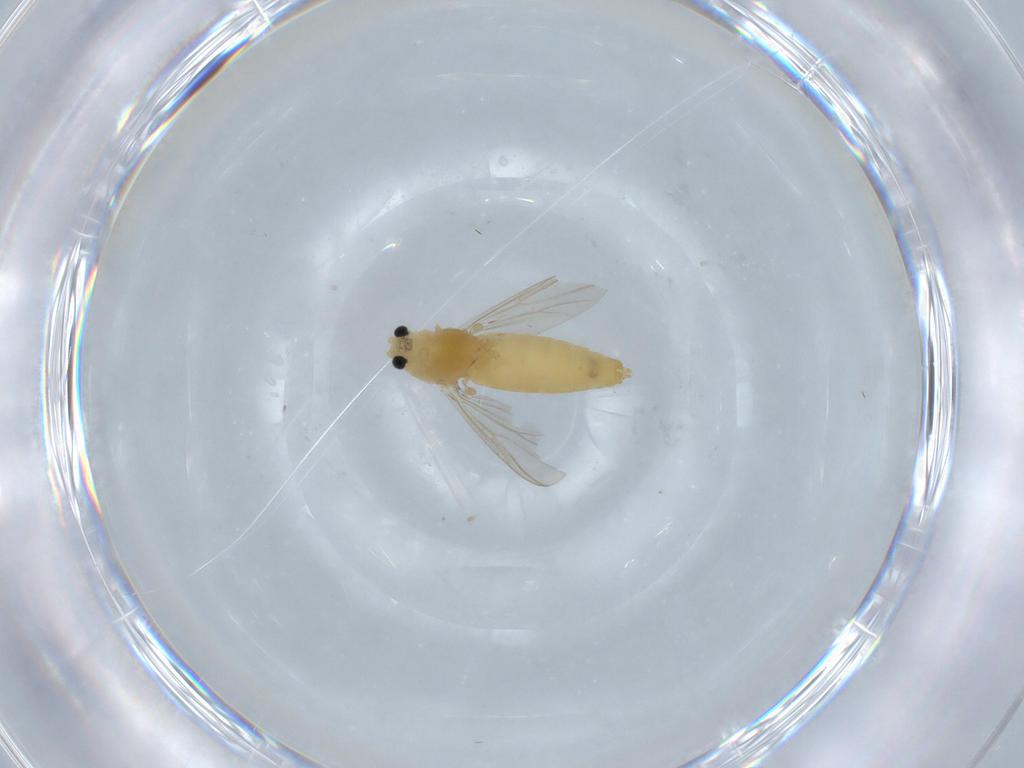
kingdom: Animalia
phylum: Arthropoda
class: Insecta
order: Diptera
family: Chironomidae
